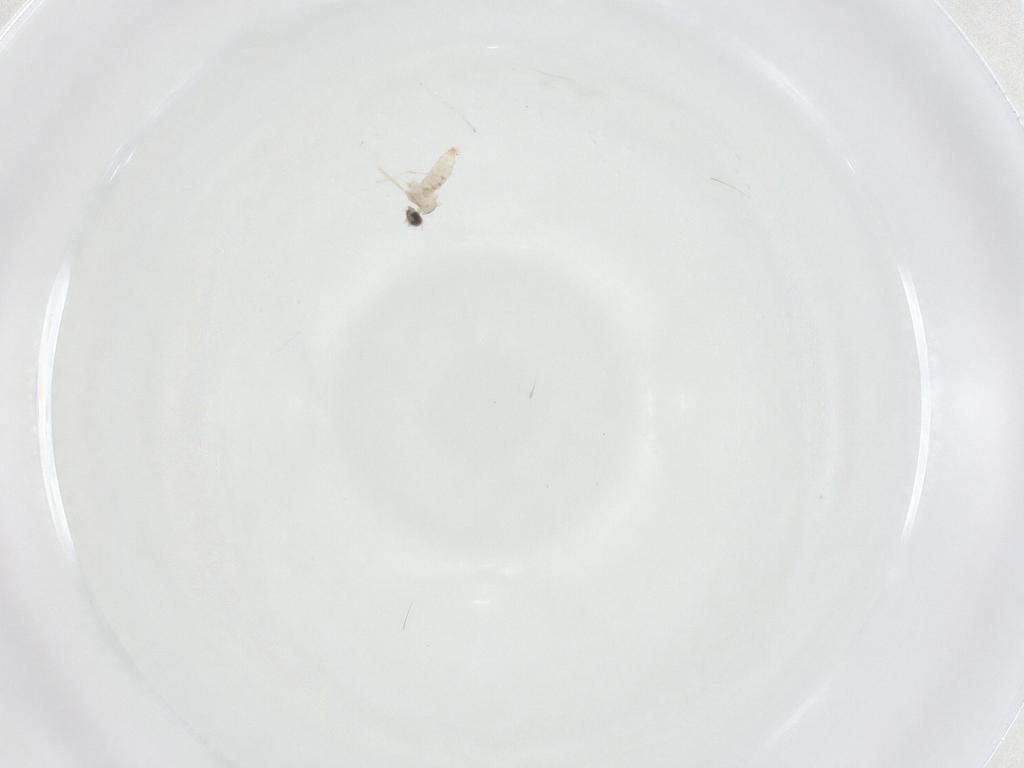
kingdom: Animalia
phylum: Arthropoda
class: Insecta
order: Diptera
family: Cecidomyiidae
